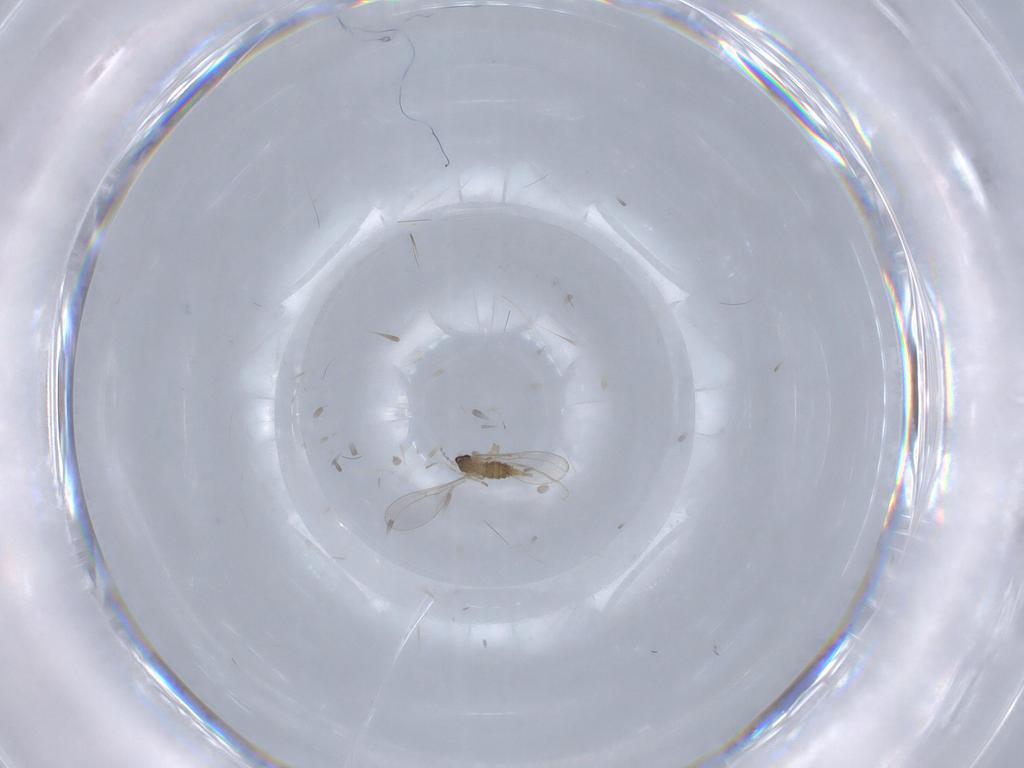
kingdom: Animalia
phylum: Arthropoda
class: Insecta
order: Diptera
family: Cecidomyiidae
